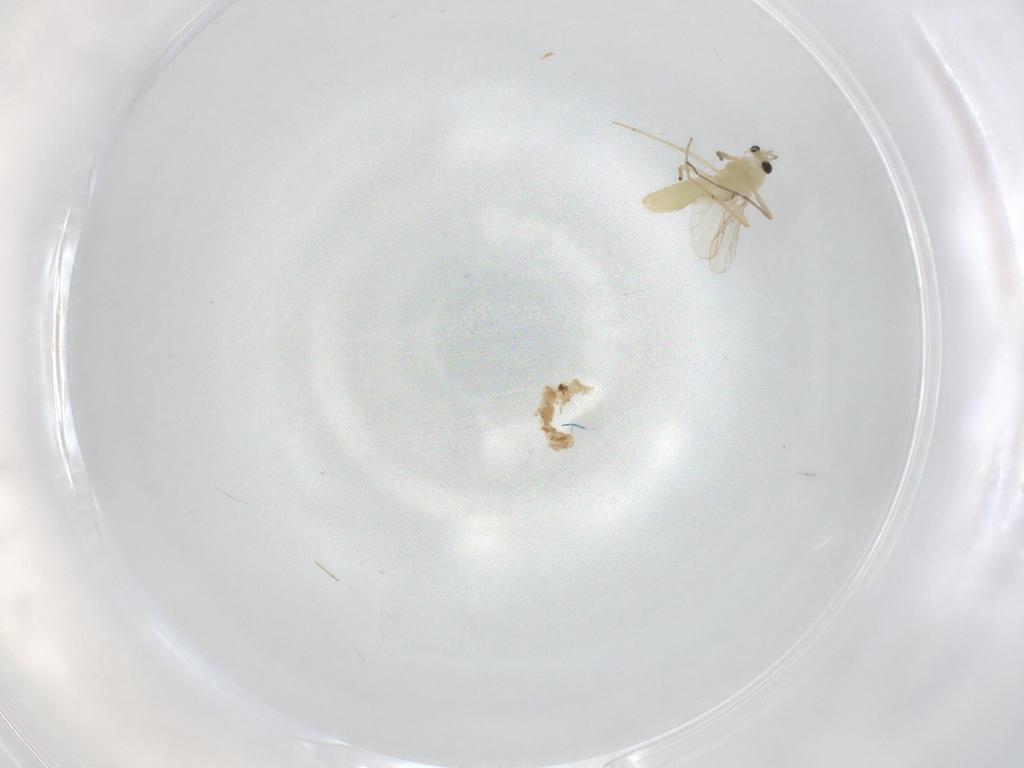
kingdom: Animalia
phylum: Arthropoda
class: Insecta
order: Diptera
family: Chironomidae
